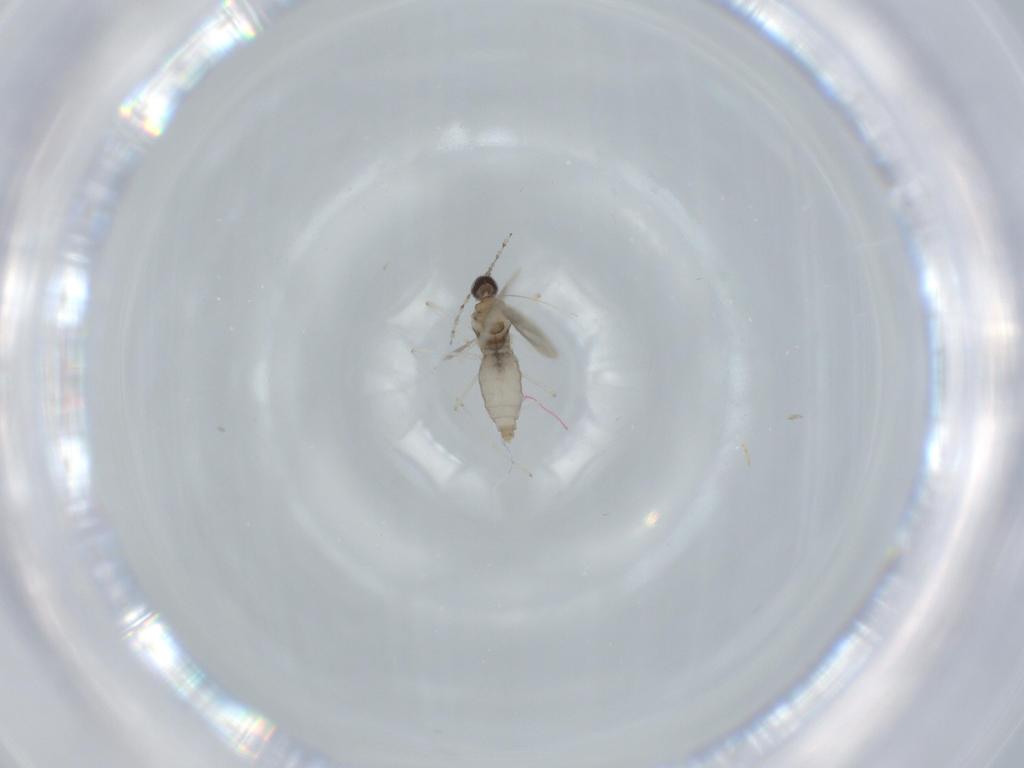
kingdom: Animalia
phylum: Arthropoda
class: Insecta
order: Diptera
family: Cecidomyiidae
